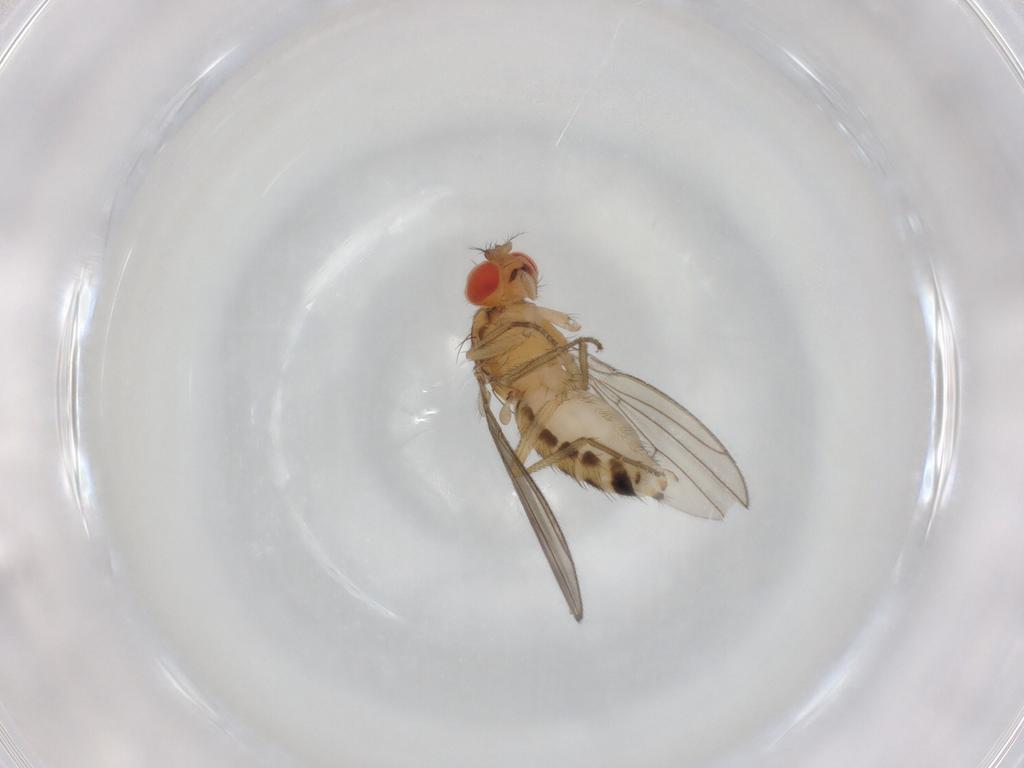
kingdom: Animalia
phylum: Arthropoda
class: Insecta
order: Diptera
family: Drosophilidae
